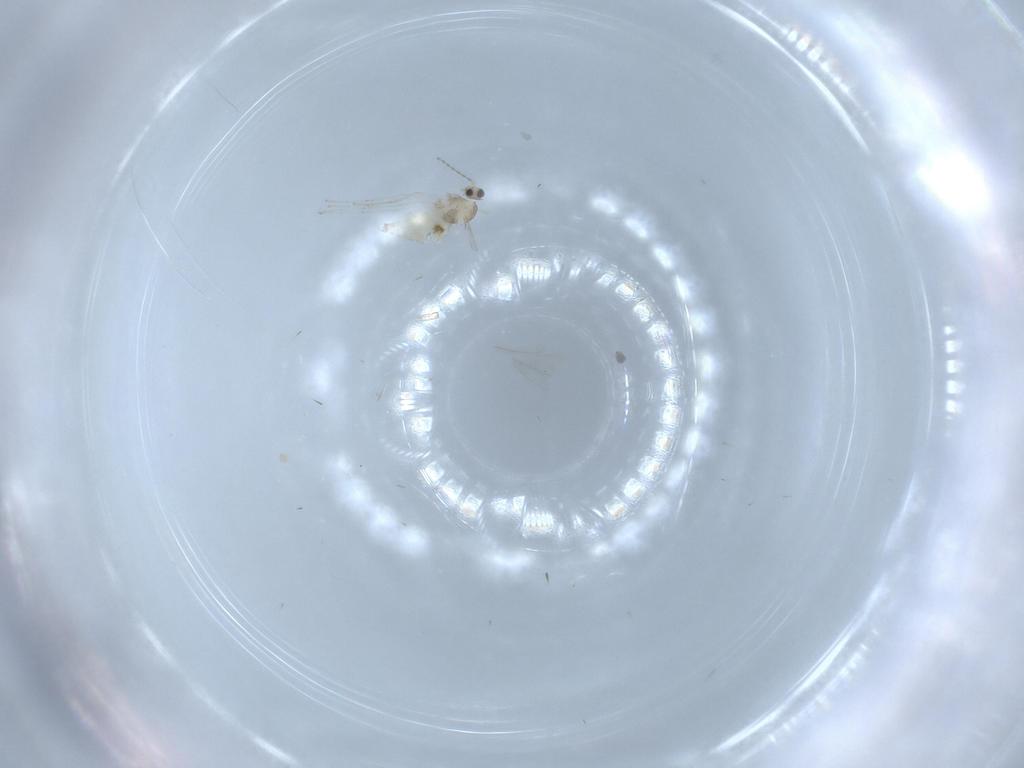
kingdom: Animalia
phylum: Arthropoda
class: Insecta
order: Diptera
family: Cecidomyiidae
